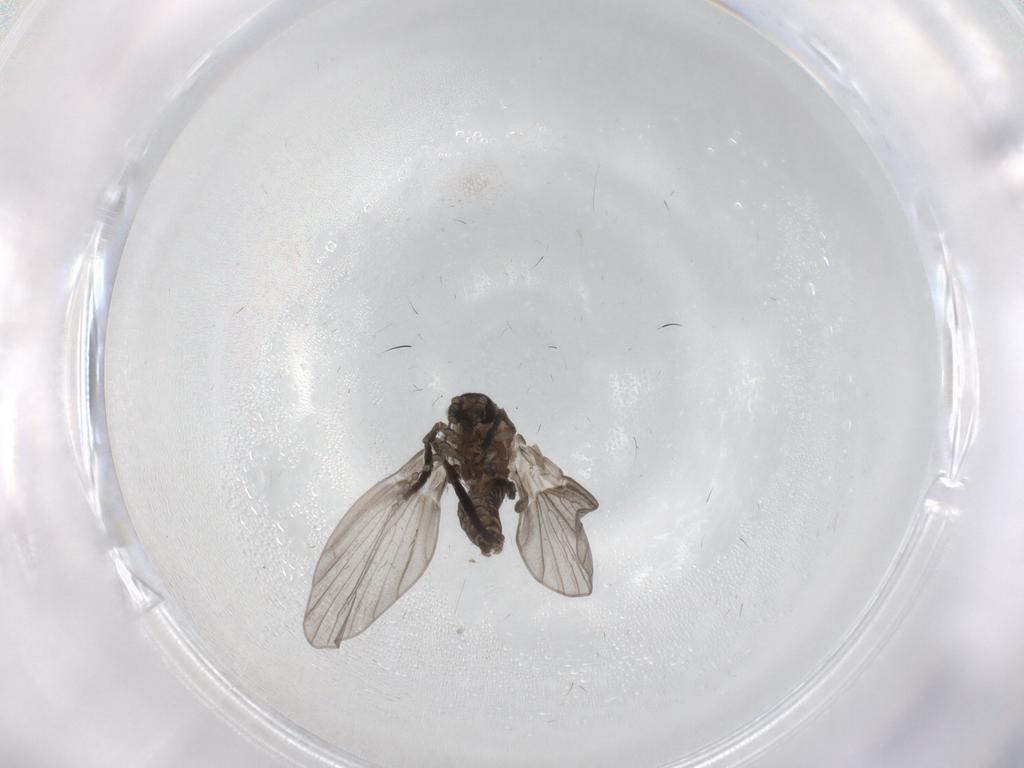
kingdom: Animalia
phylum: Arthropoda
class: Insecta
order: Diptera
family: Psychodidae
